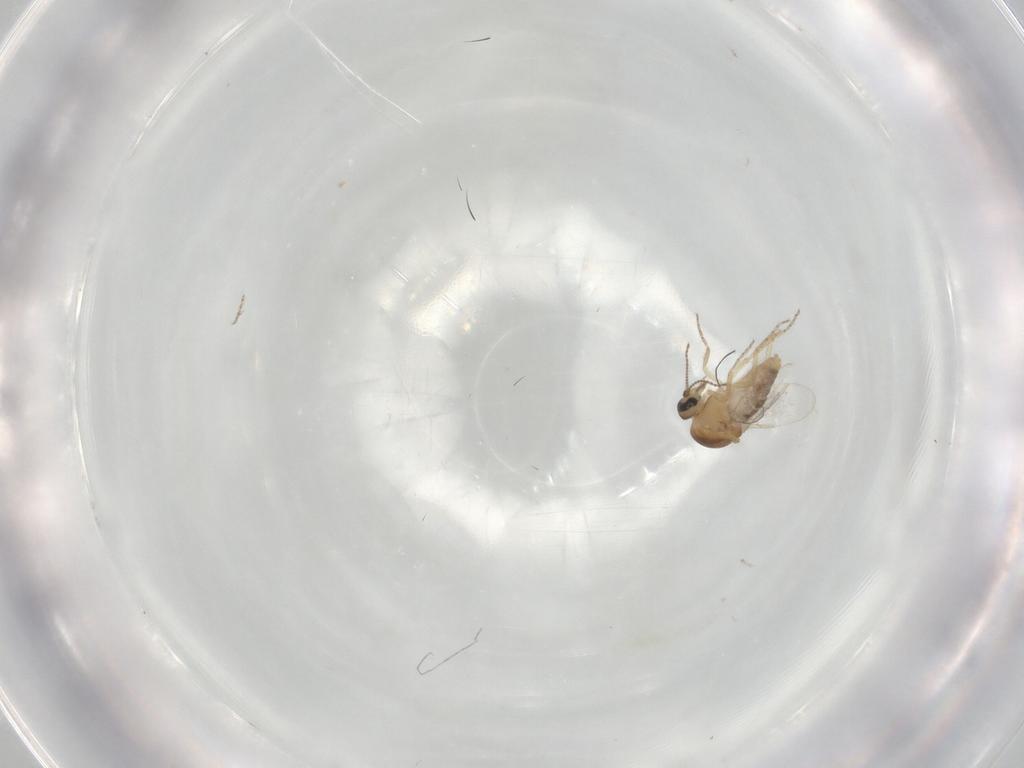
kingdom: Animalia
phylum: Arthropoda
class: Insecta
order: Diptera
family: Ceratopogonidae
